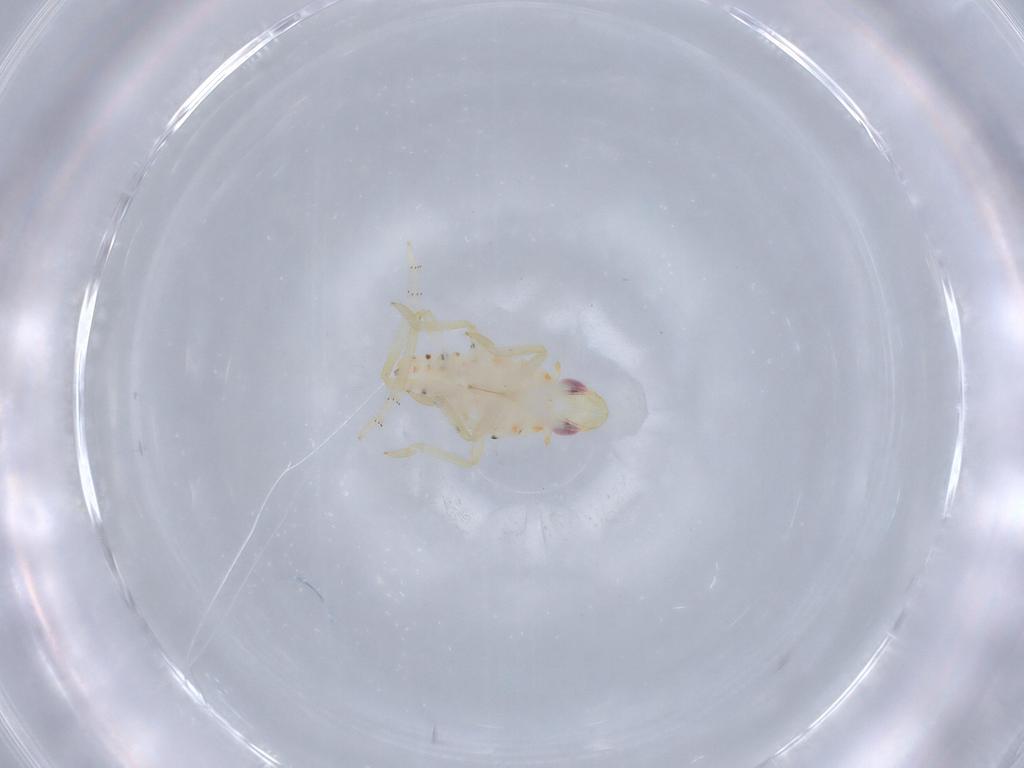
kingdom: Animalia
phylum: Arthropoda
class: Insecta
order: Hemiptera
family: Tropiduchidae
